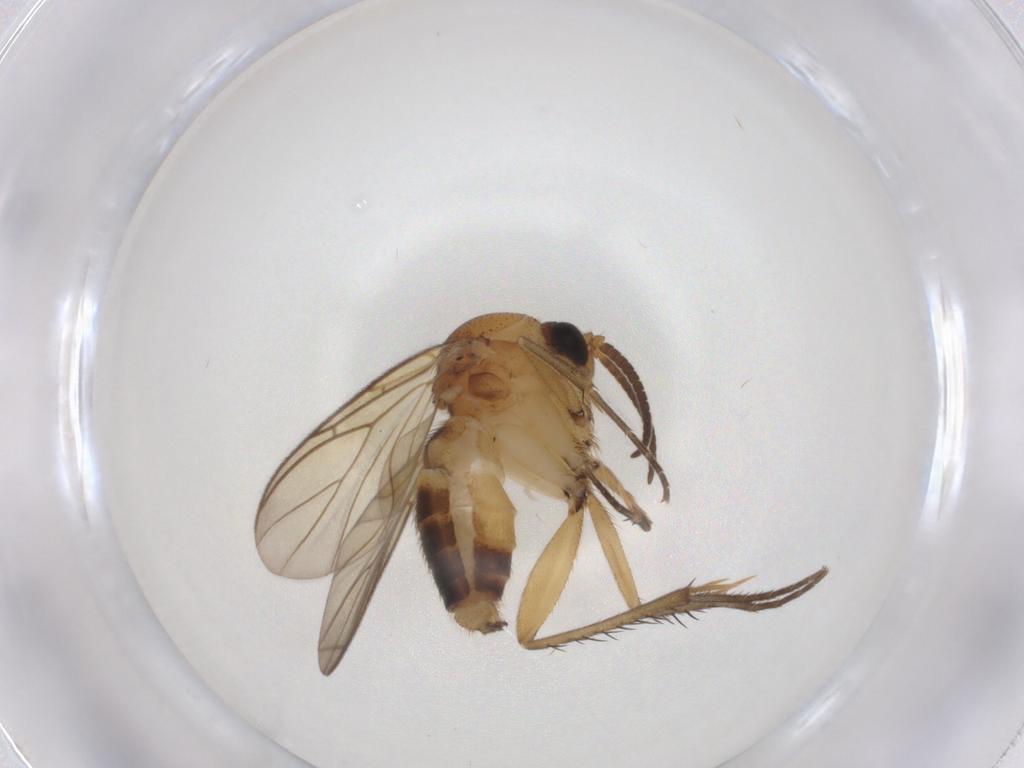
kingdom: Animalia
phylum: Arthropoda
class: Insecta
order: Diptera
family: Mycetophilidae
